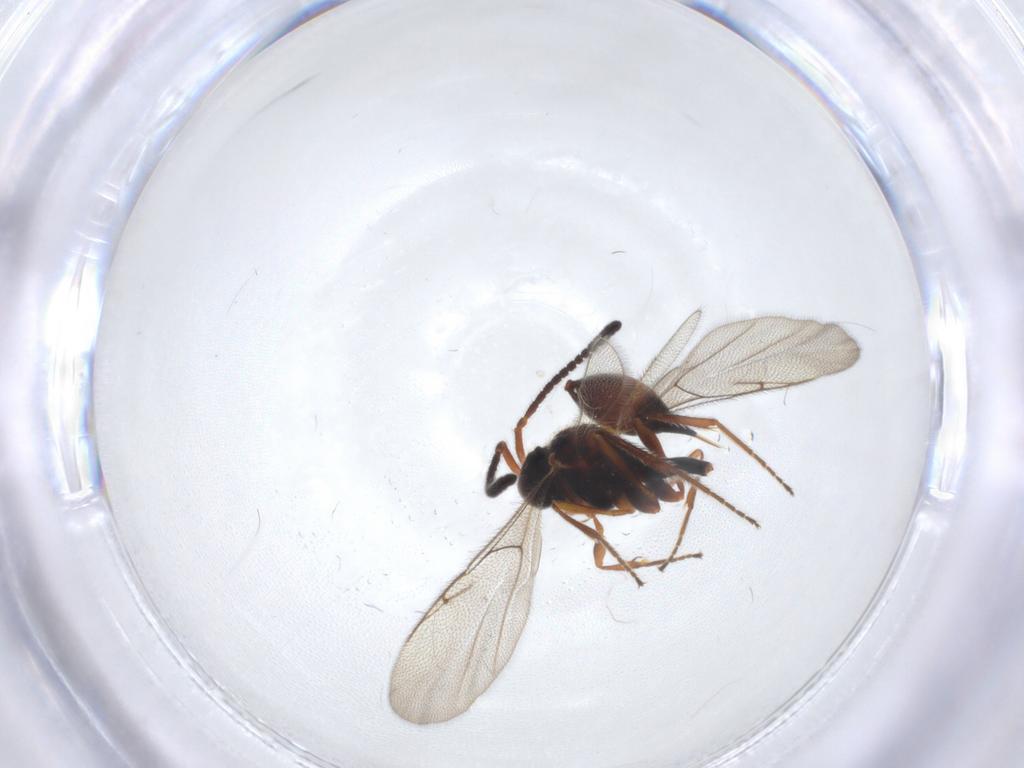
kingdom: Animalia
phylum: Arthropoda
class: Insecta
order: Hymenoptera
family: Diapriidae
